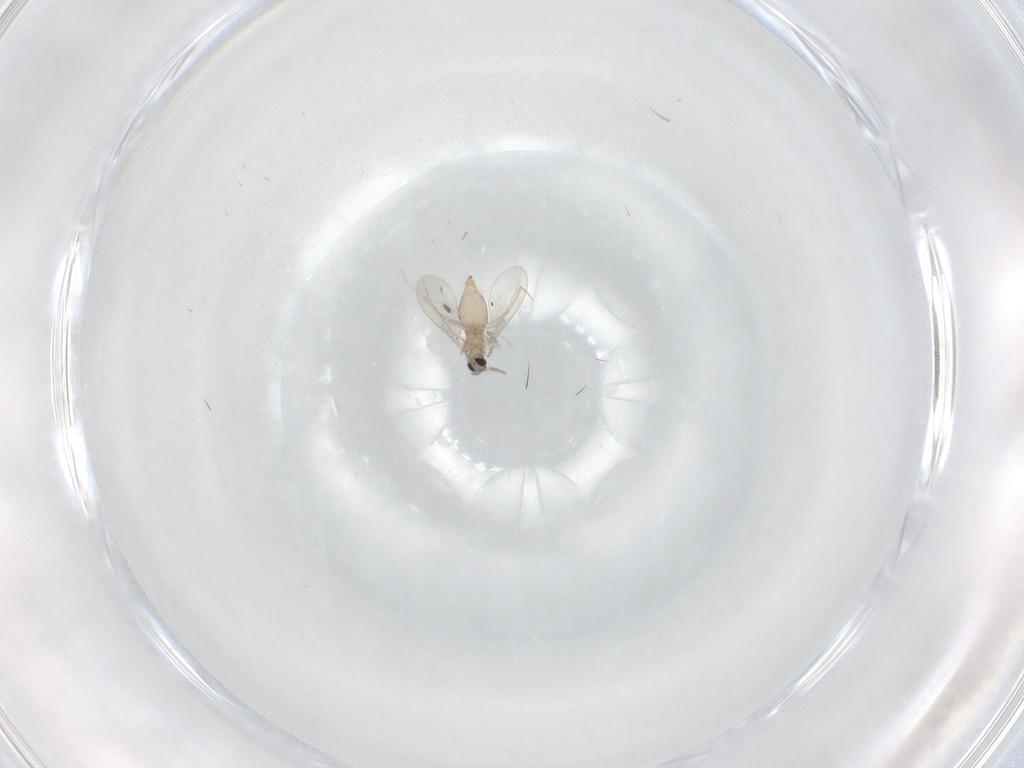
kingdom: Animalia
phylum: Arthropoda
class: Insecta
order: Diptera
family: Cecidomyiidae
